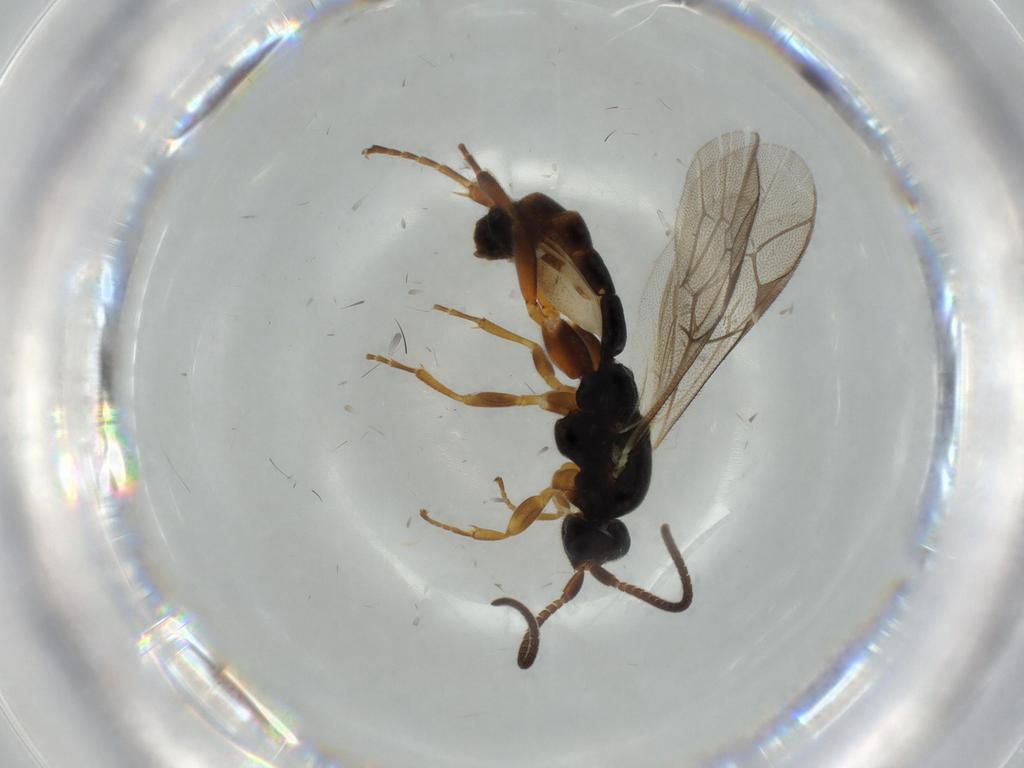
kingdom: Animalia
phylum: Arthropoda
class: Insecta
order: Hymenoptera
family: Ichneumonidae
